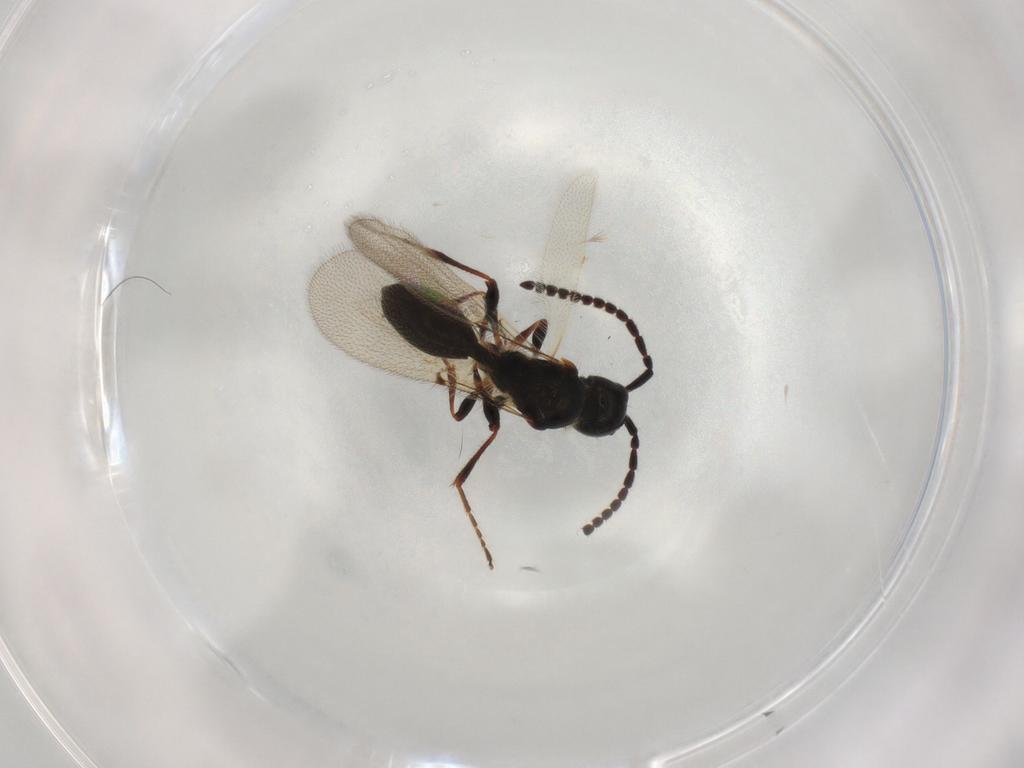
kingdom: Animalia
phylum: Arthropoda
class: Insecta
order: Hymenoptera
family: Diapriidae
